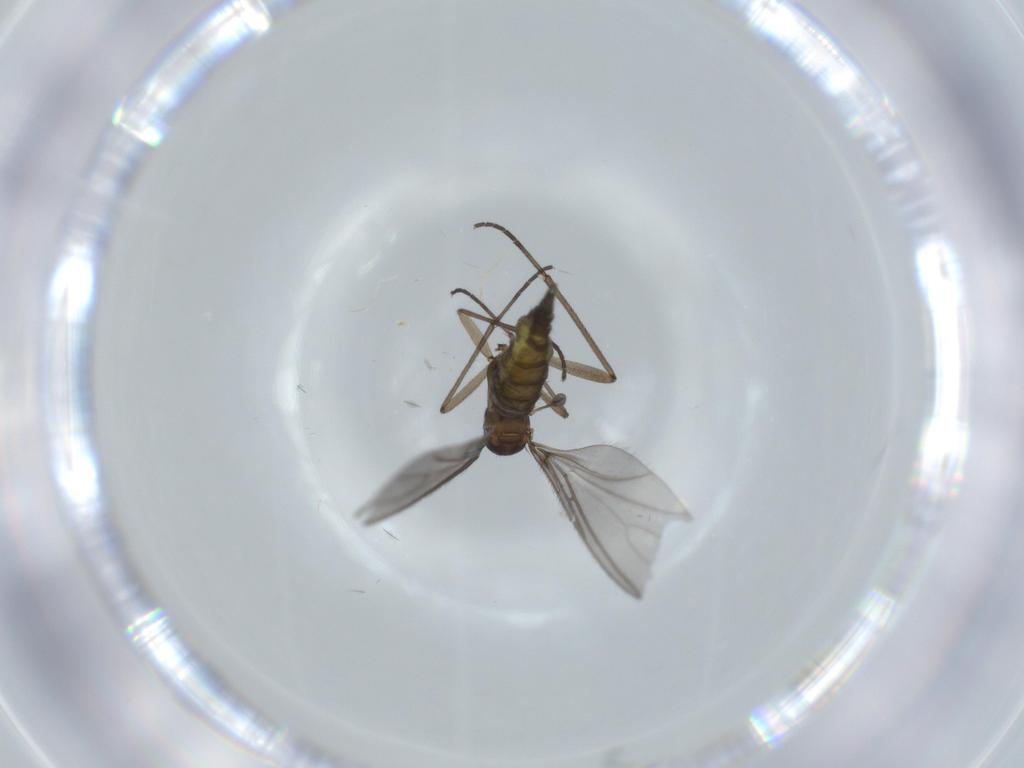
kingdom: Animalia
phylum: Arthropoda
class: Insecta
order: Diptera
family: Sciaridae
